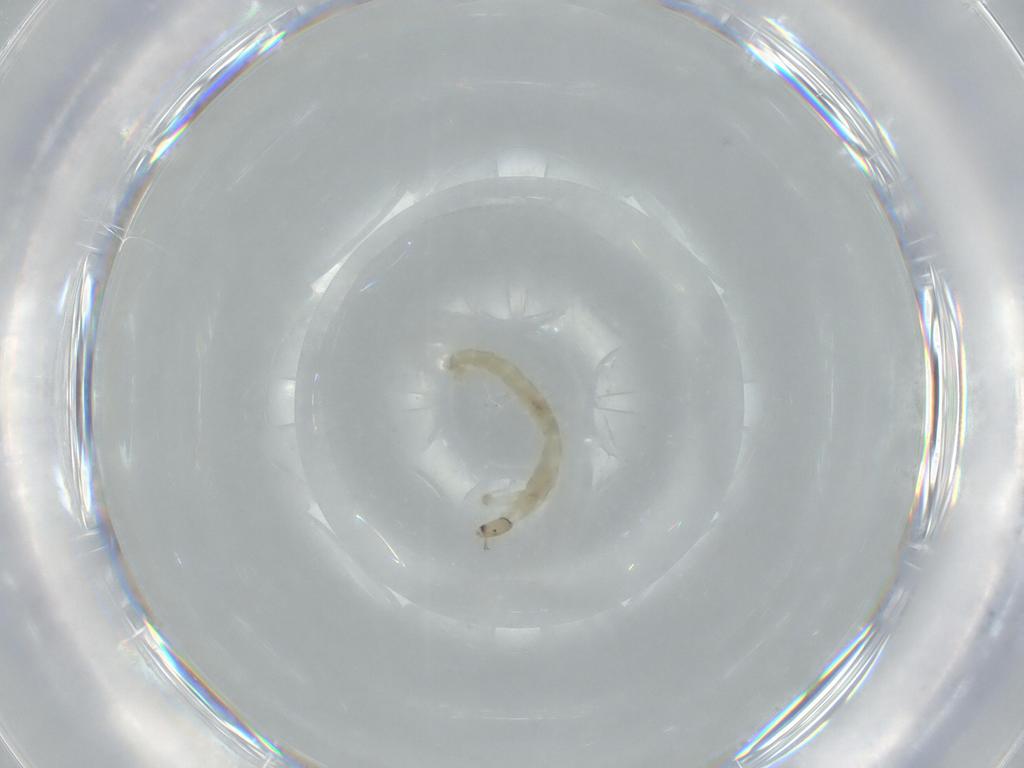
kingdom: Animalia
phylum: Arthropoda
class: Insecta
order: Diptera
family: Chironomidae
